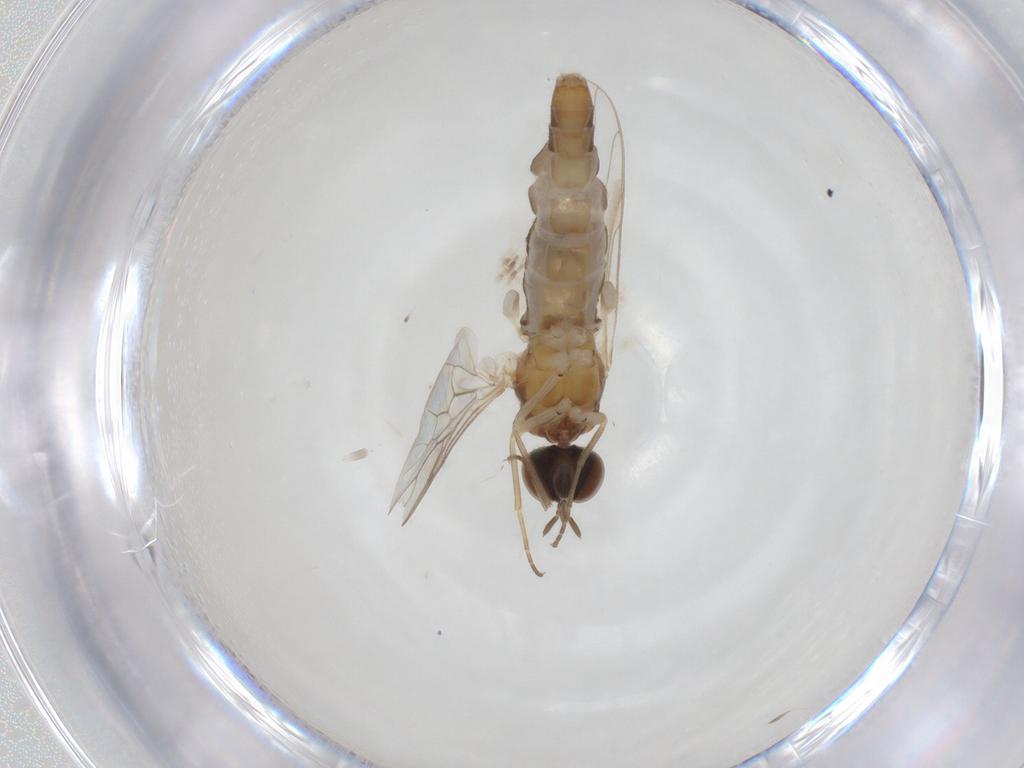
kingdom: Animalia
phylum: Arthropoda
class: Insecta
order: Diptera
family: Scenopinidae
